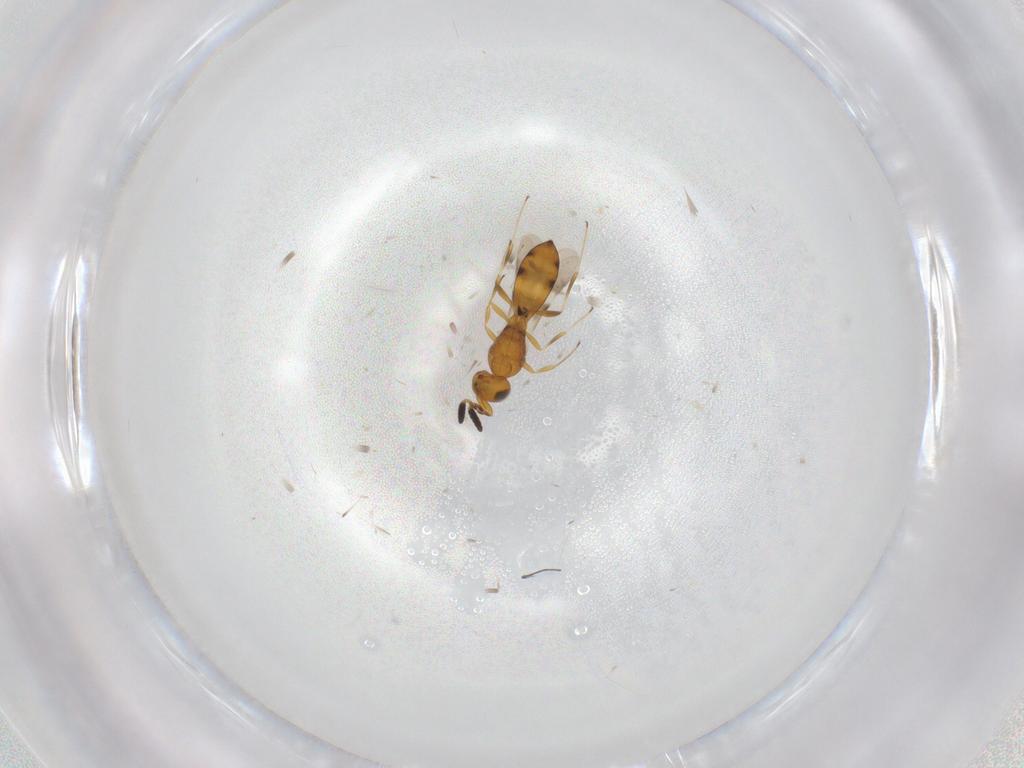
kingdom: Animalia
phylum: Arthropoda
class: Insecta
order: Hymenoptera
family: Scelionidae
